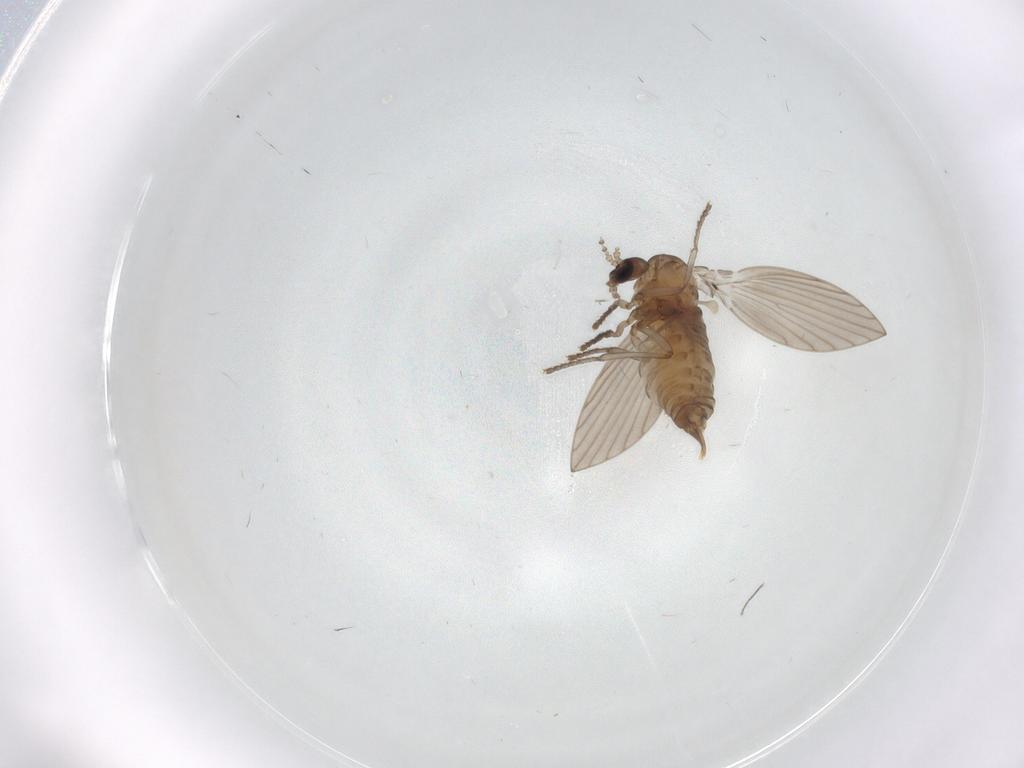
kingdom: Animalia
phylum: Arthropoda
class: Insecta
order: Diptera
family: Psychodidae
